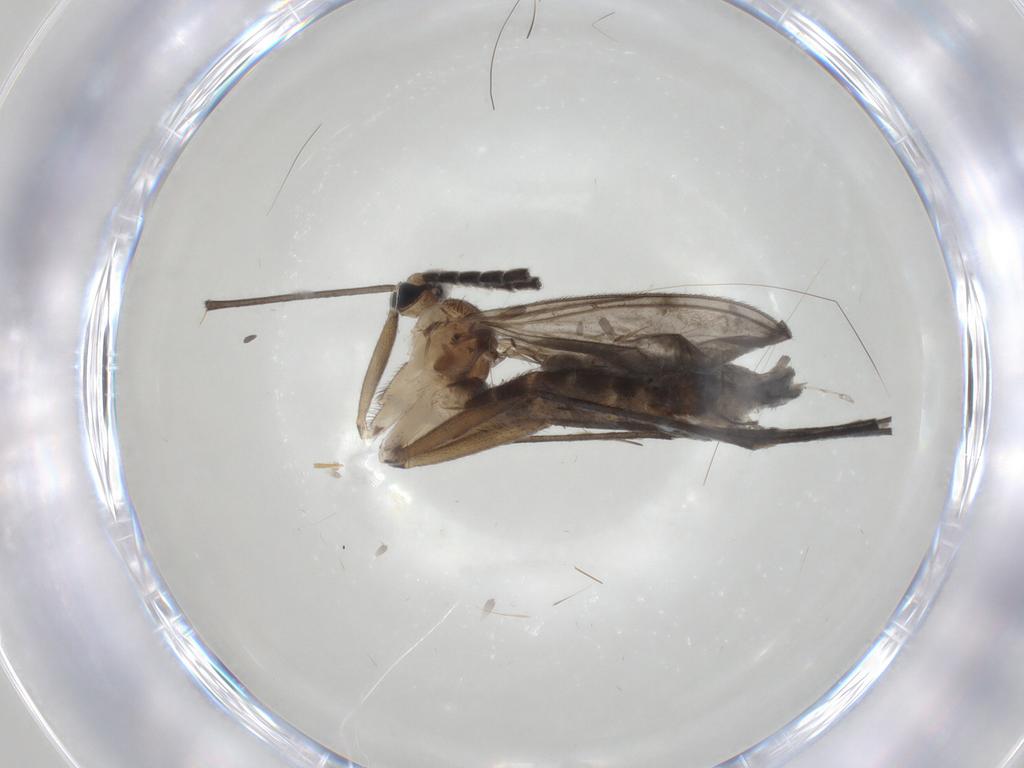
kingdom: Animalia
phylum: Arthropoda
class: Insecta
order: Diptera
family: Sciaridae
